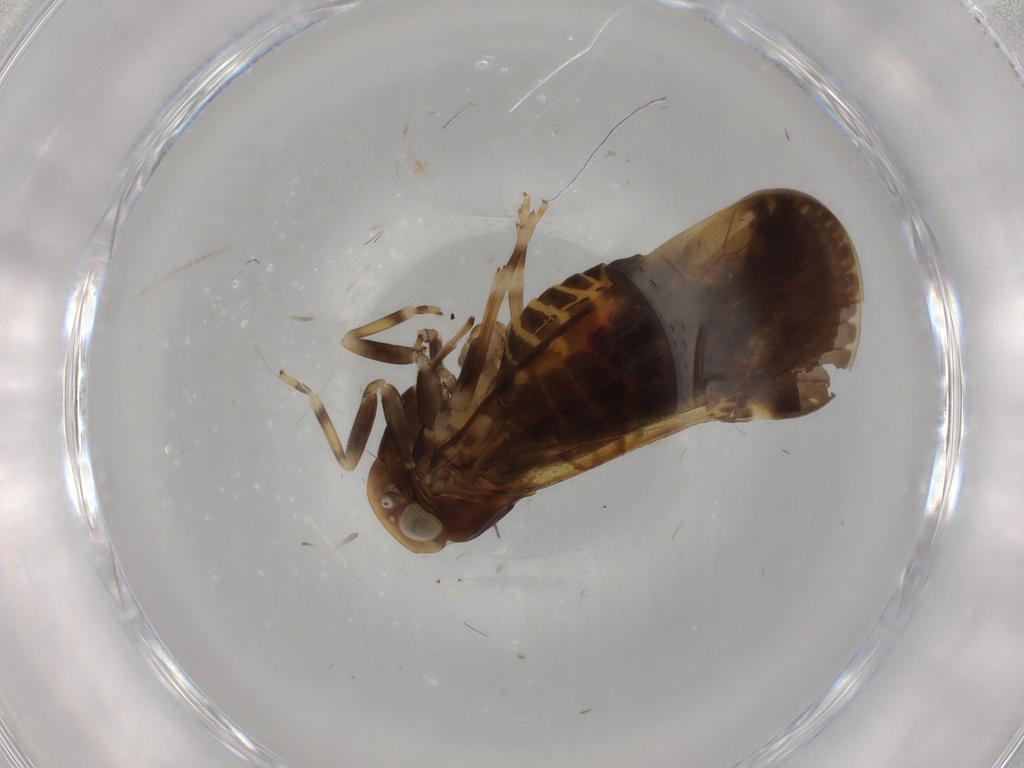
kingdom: Animalia
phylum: Arthropoda
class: Insecta
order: Hemiptera
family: Cixiidae
